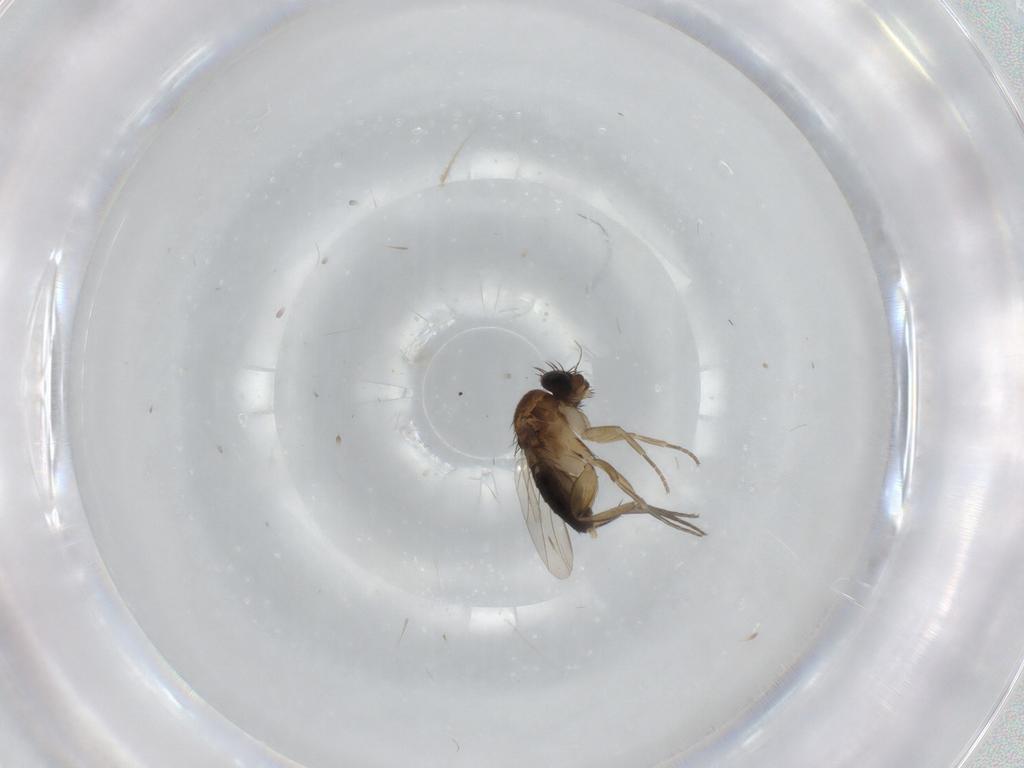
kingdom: Animalia
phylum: Arthropoda
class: Insecta
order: Diptera
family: Phoridae
